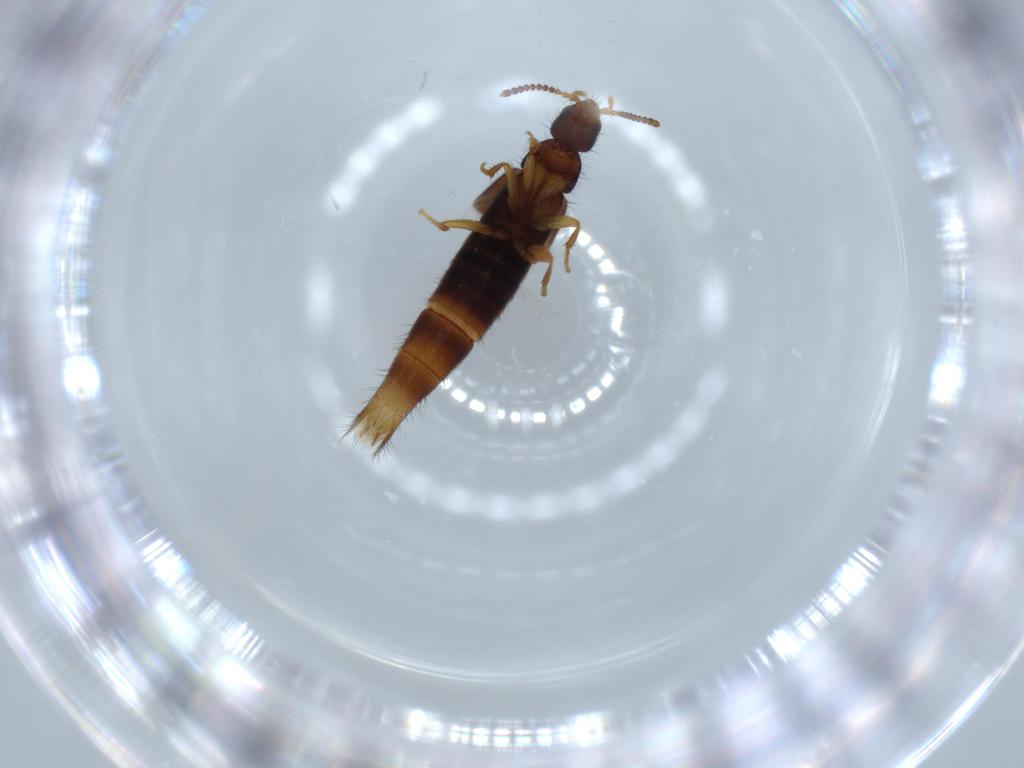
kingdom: Animalia
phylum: Arthropoda
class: Insecta
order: Coleoptera
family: Staphylinidae
